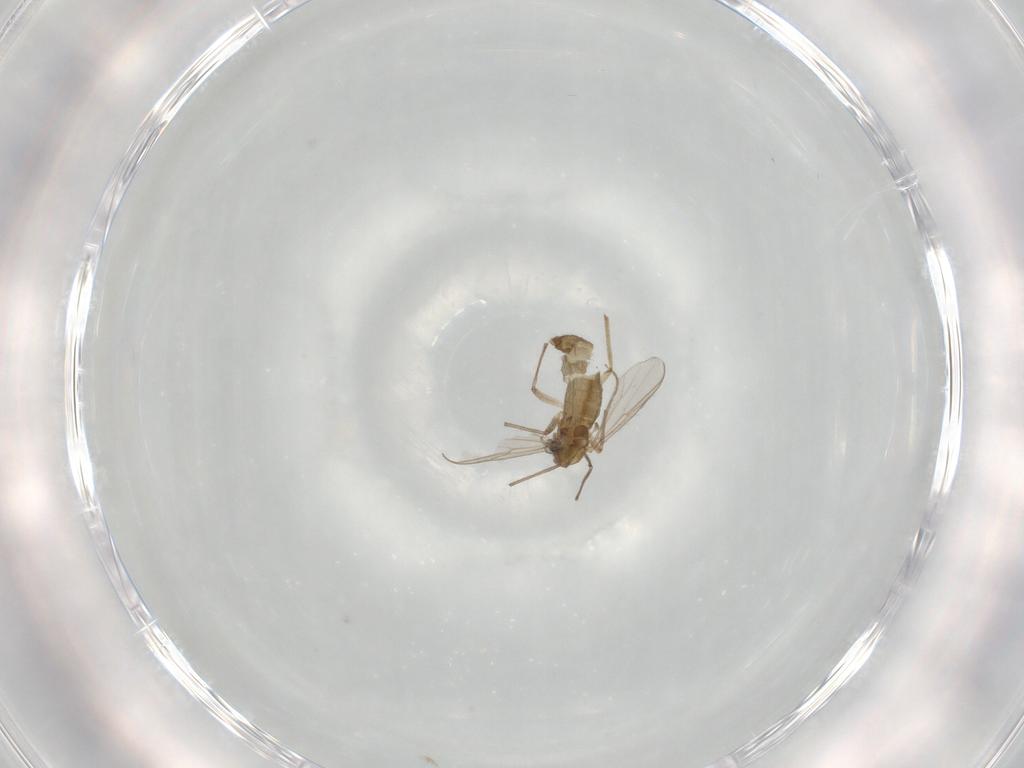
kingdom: Animalia
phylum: Arthropoda
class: Insecta
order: Diptera
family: Chironomidae
